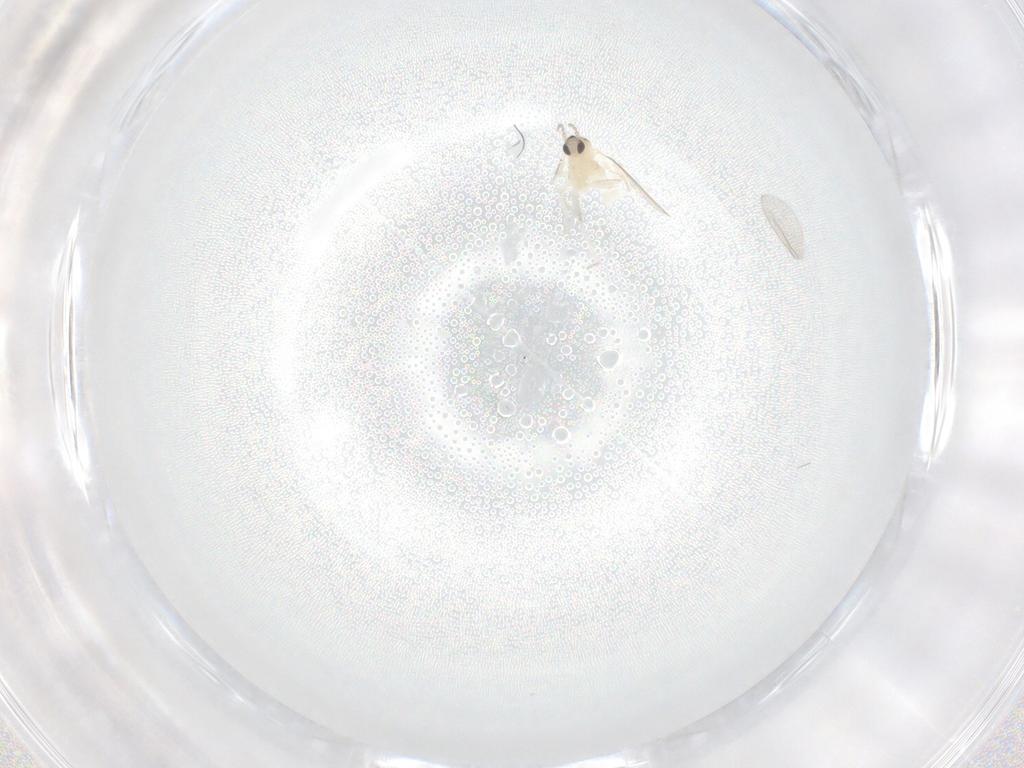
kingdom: Animalia
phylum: Arthropoda
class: Insecta
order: Diptera
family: Cecidomyiidae
